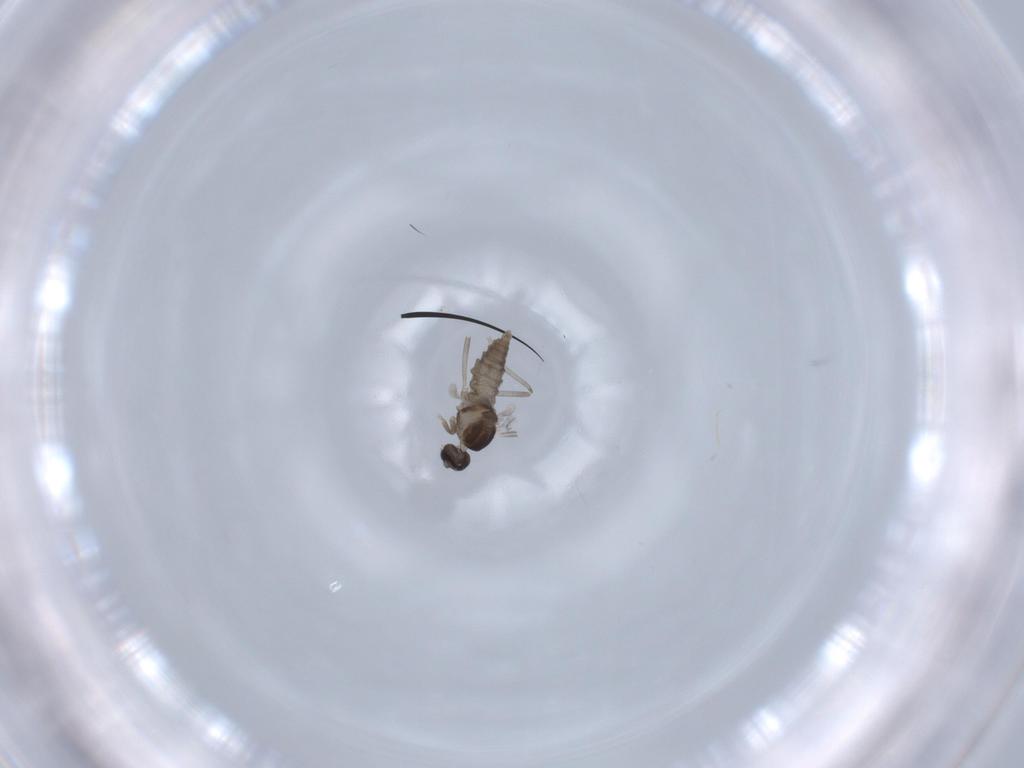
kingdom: Animalia
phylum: Arthropoda
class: Insecta
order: Diptera
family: Cecidomyiidae
